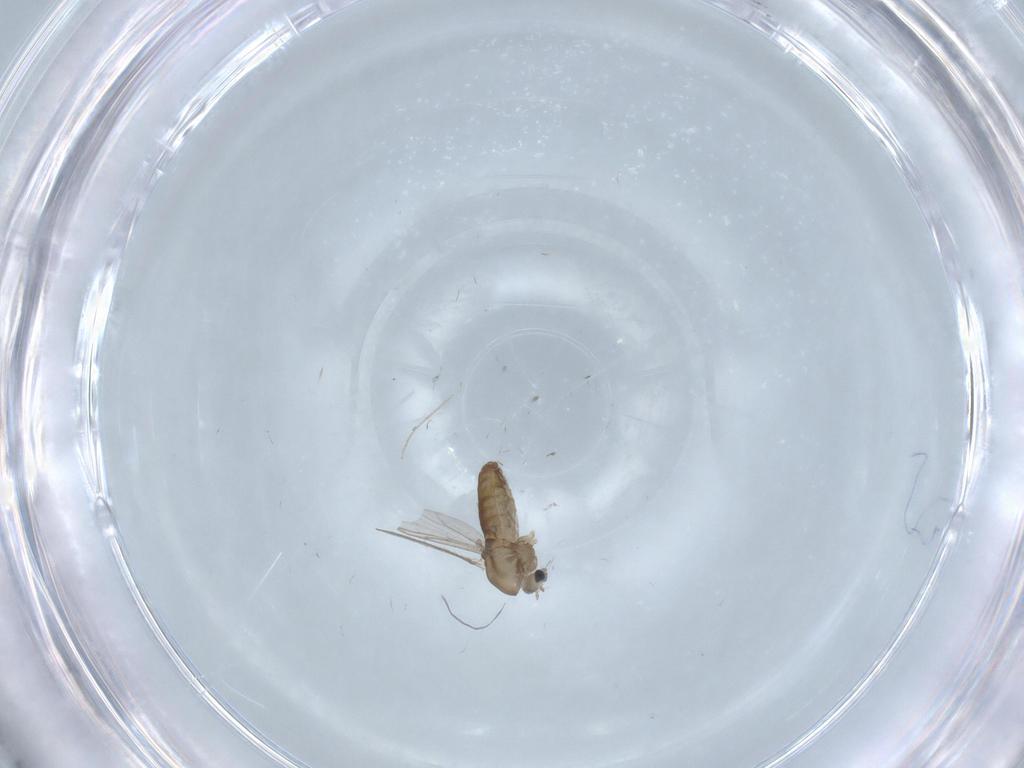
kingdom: Animalia
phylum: Arthropoda
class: Insecta
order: Diptera
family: Chironomidae
